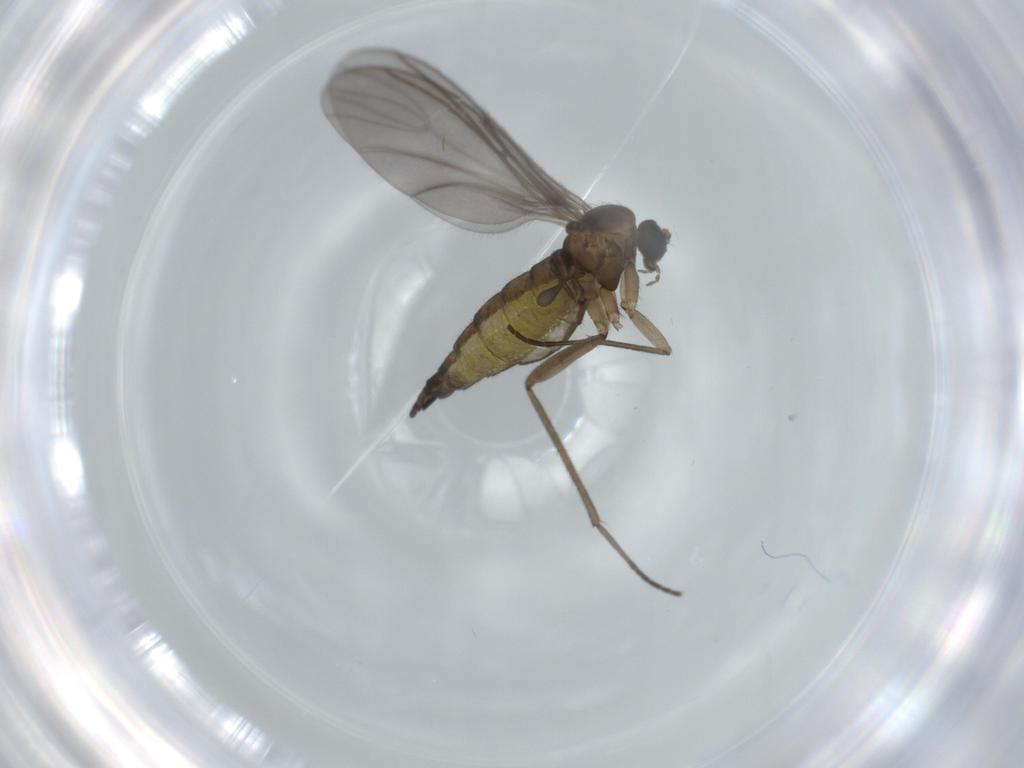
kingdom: Animalia
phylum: Arthropoda
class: Insecta
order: Diptera
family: Sciaridae
